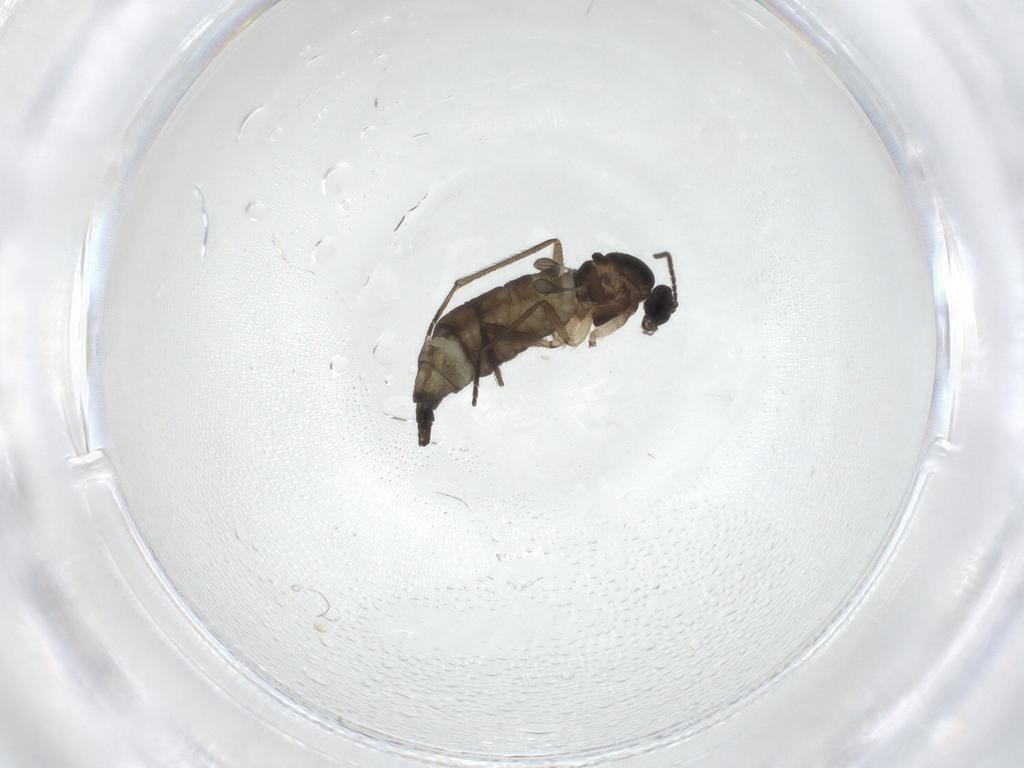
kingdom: Animalia
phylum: Arthropoda
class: Insecta
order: Diptera
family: Sciaridae
